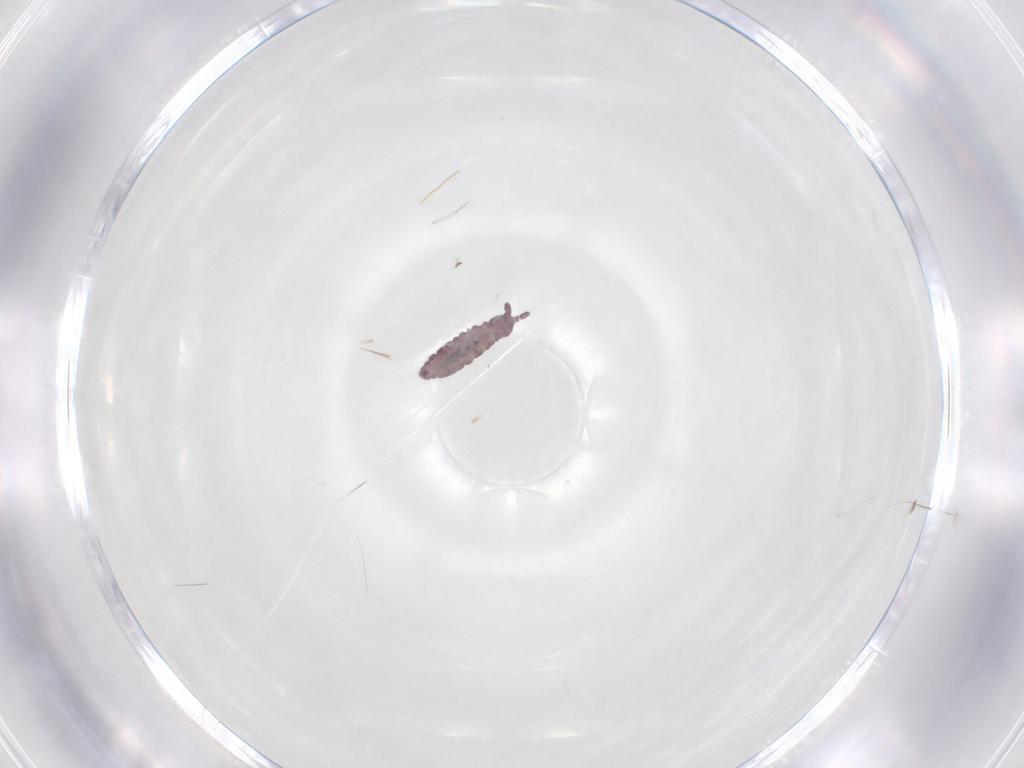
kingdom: Animalia
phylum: Arthropoda
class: Collembola
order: Poduromorpha
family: Hypogastruridae
